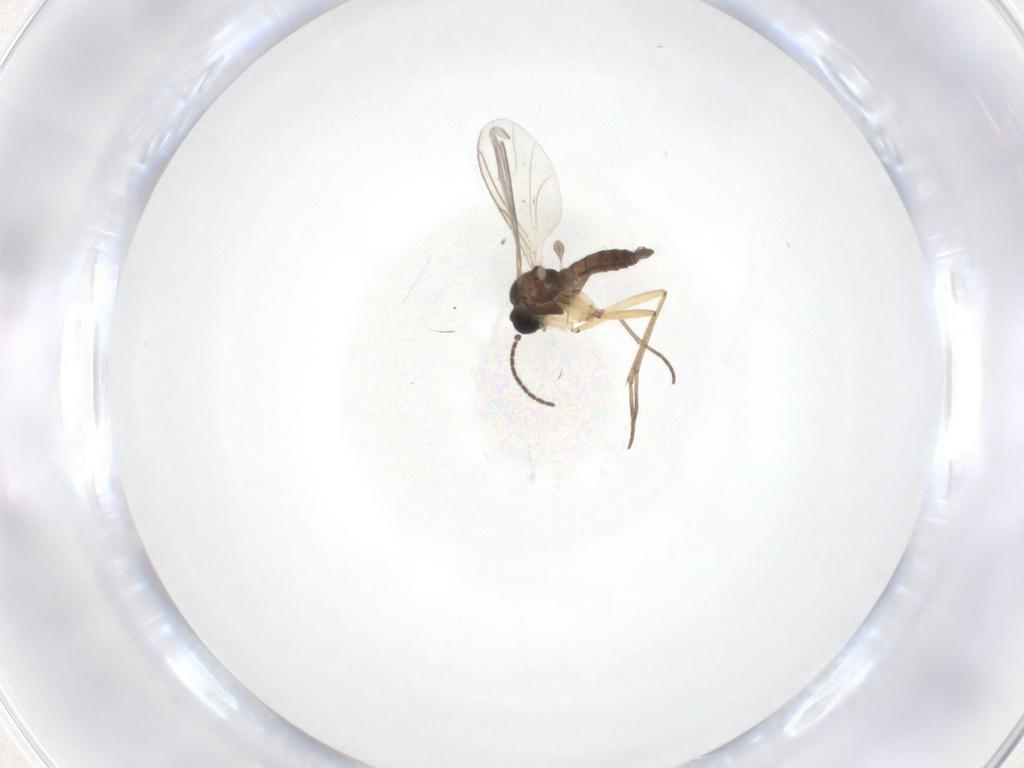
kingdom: Animalia
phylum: Arthropoda
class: Insecta
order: Diptera
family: Sciaridae
